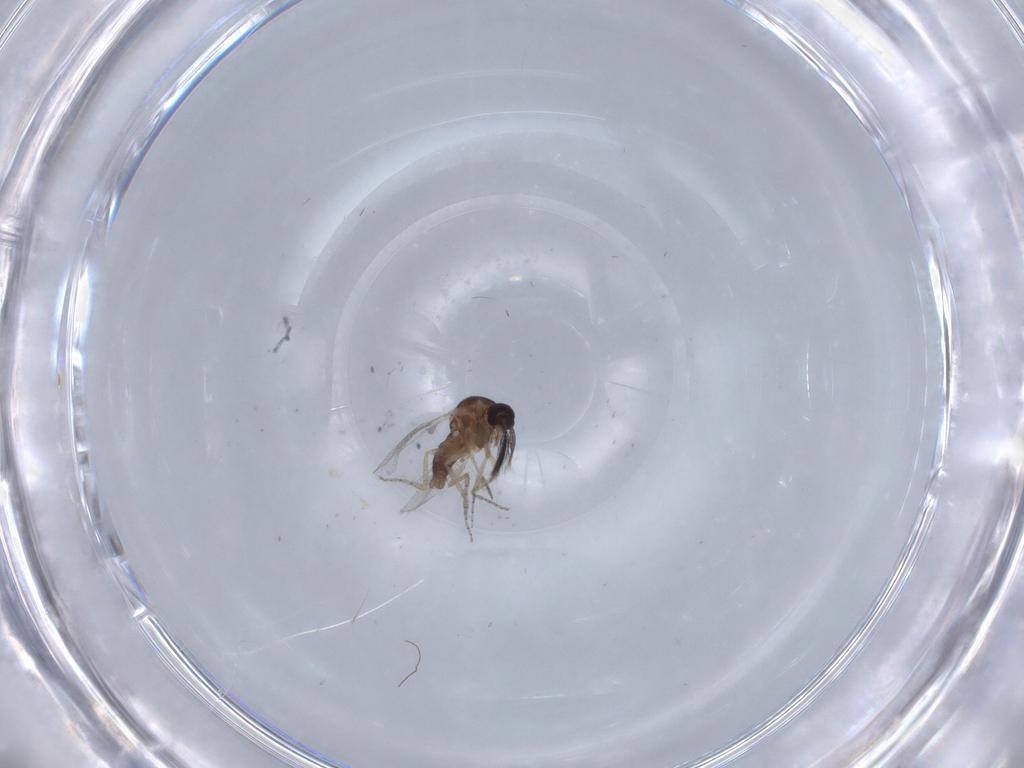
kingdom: Animalia
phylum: Arthropoda
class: Insecta
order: Diptera
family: Ceratopogonidae
